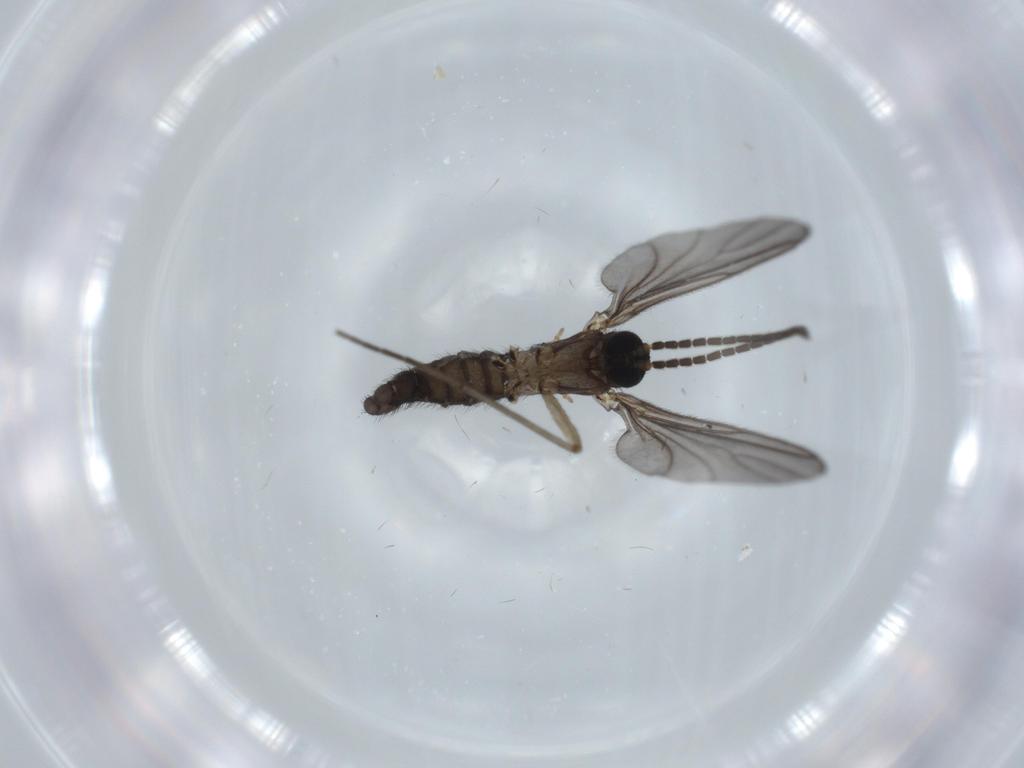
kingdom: Animalia
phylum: Arthropoda
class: Insecta
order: Diptera
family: Sciaridae
